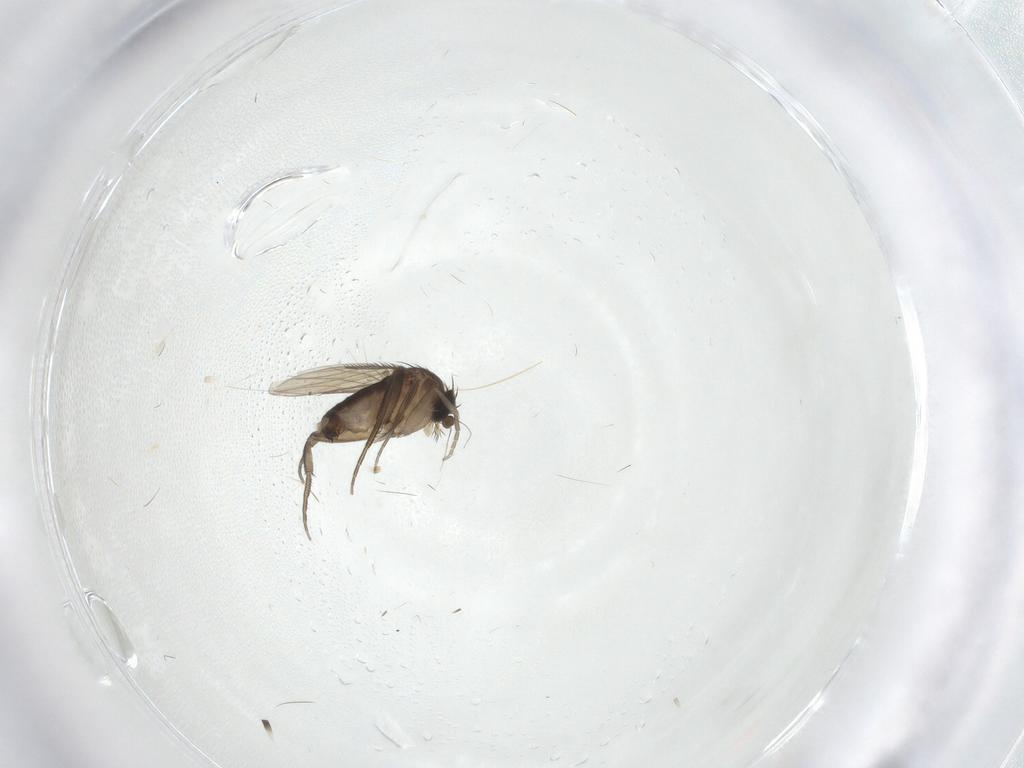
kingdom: Animalia
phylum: Arthropoda
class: Insecta
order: Diptera
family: Phoridae
